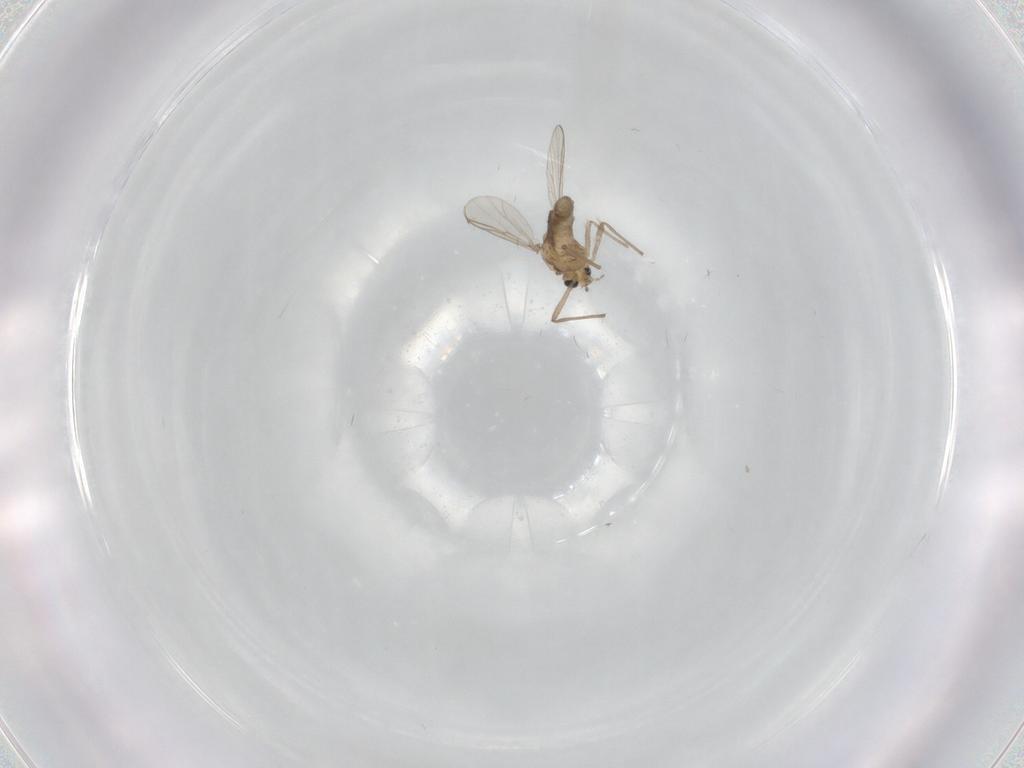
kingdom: Animalia
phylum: Arthropoda
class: Insecta
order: Diptera
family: Chironomidae
